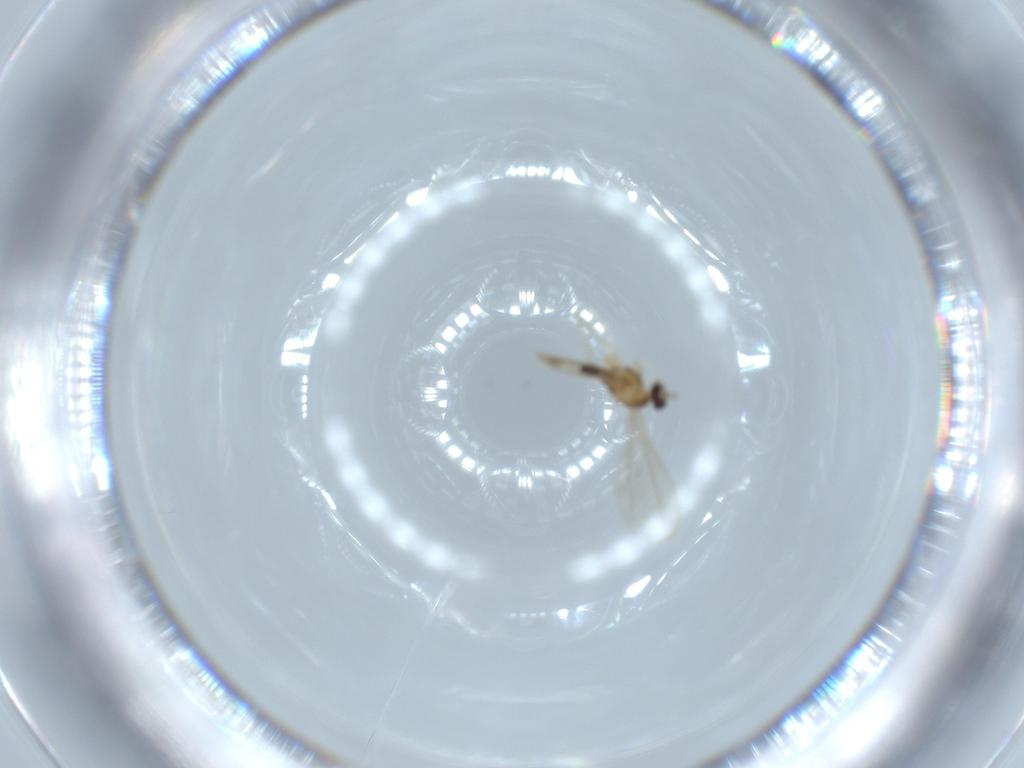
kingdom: Animalia
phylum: Arthropoda
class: Insecta
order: Diptera
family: Cecidomyiidae
